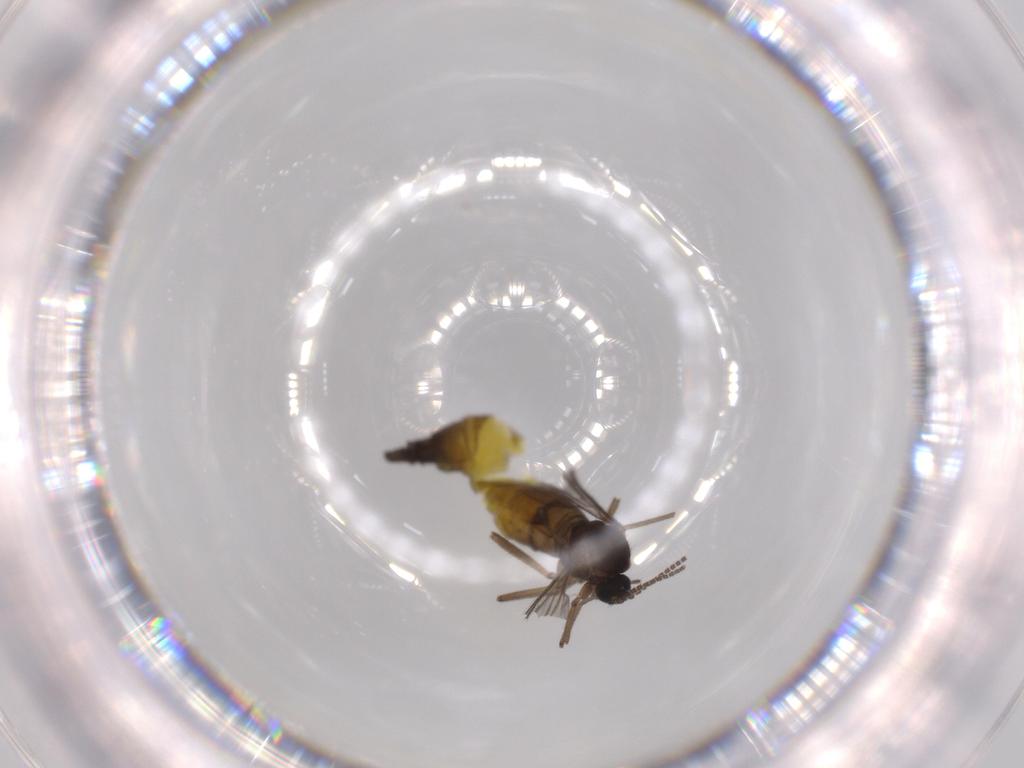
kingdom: Animalia
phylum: Arthropoda
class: Insecta
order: Diptera
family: Sciaridae
